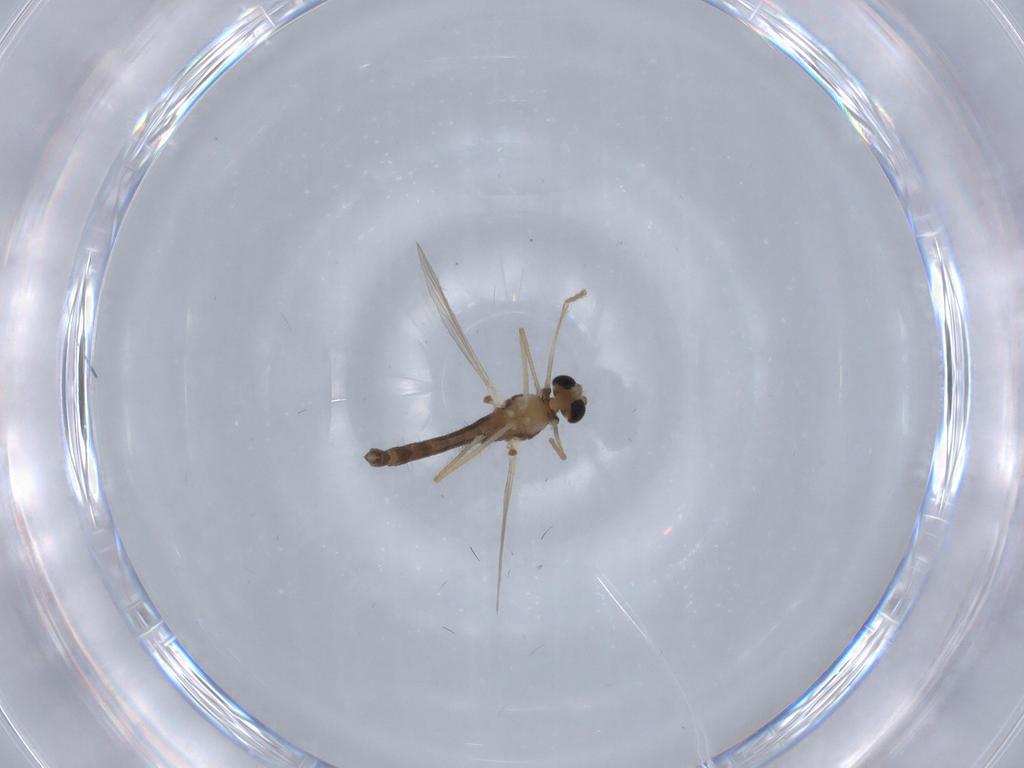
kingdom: Animalia
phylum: Arthropoda
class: Insecta
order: Diptera
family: Chironomidae
